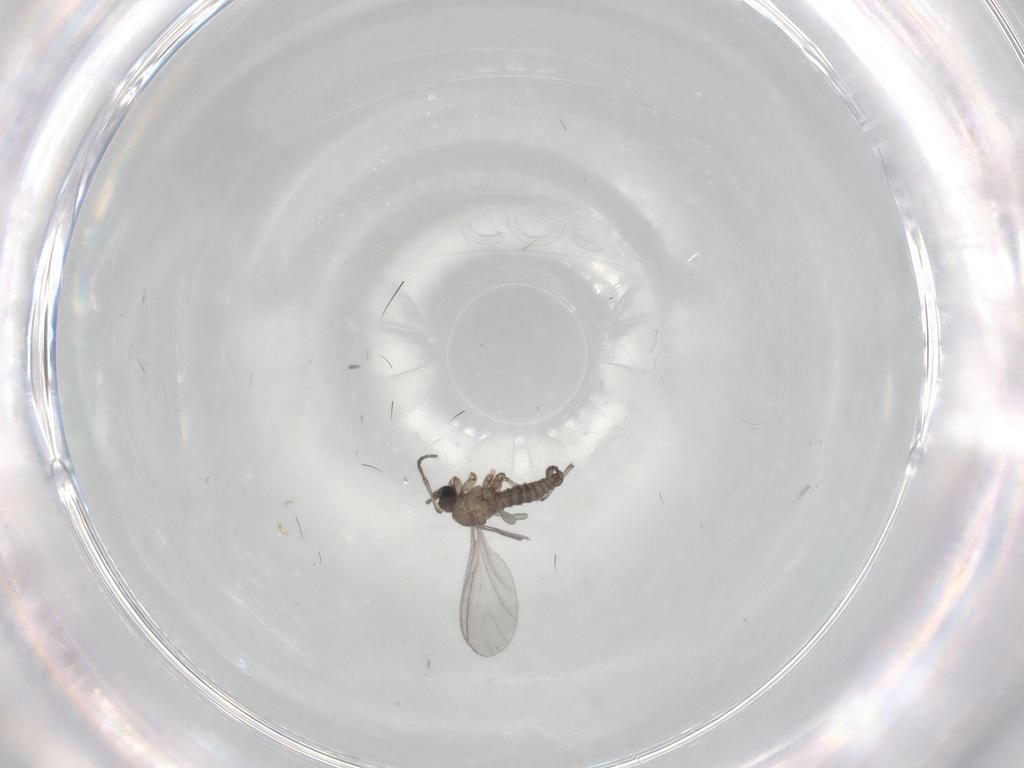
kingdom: Animalia
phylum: Arthropoda
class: Insecta
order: Diptera
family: Sciaridae
